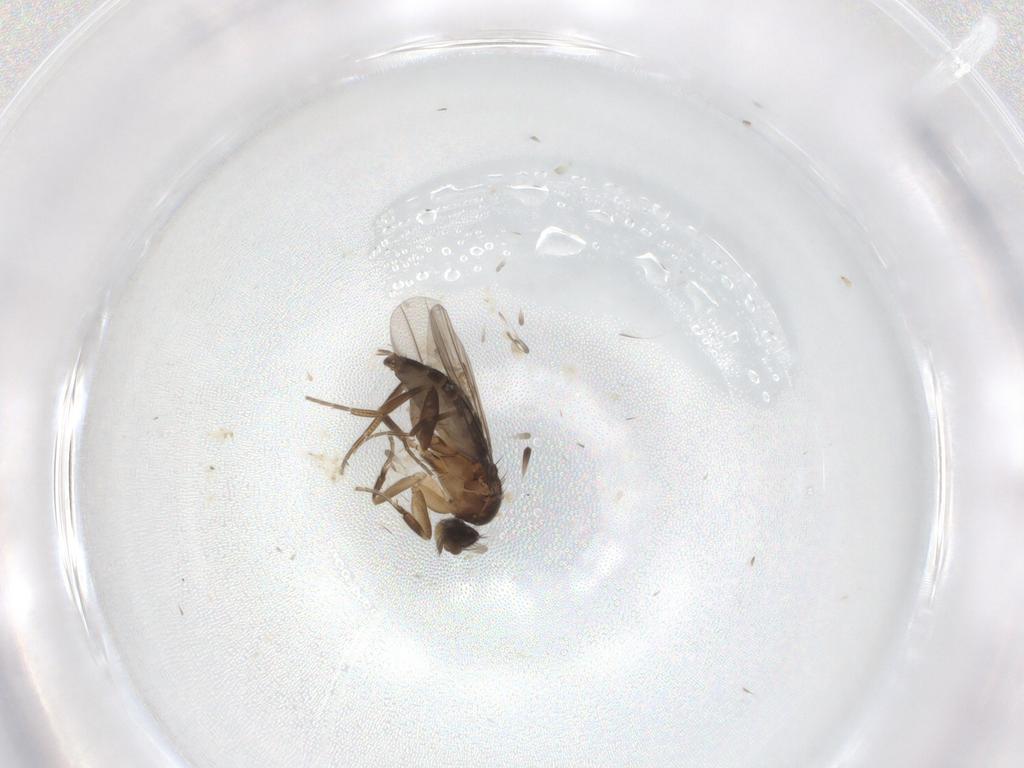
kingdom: Animalia
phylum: Arthropoda
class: Insecta
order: Diptera
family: Phoridae
